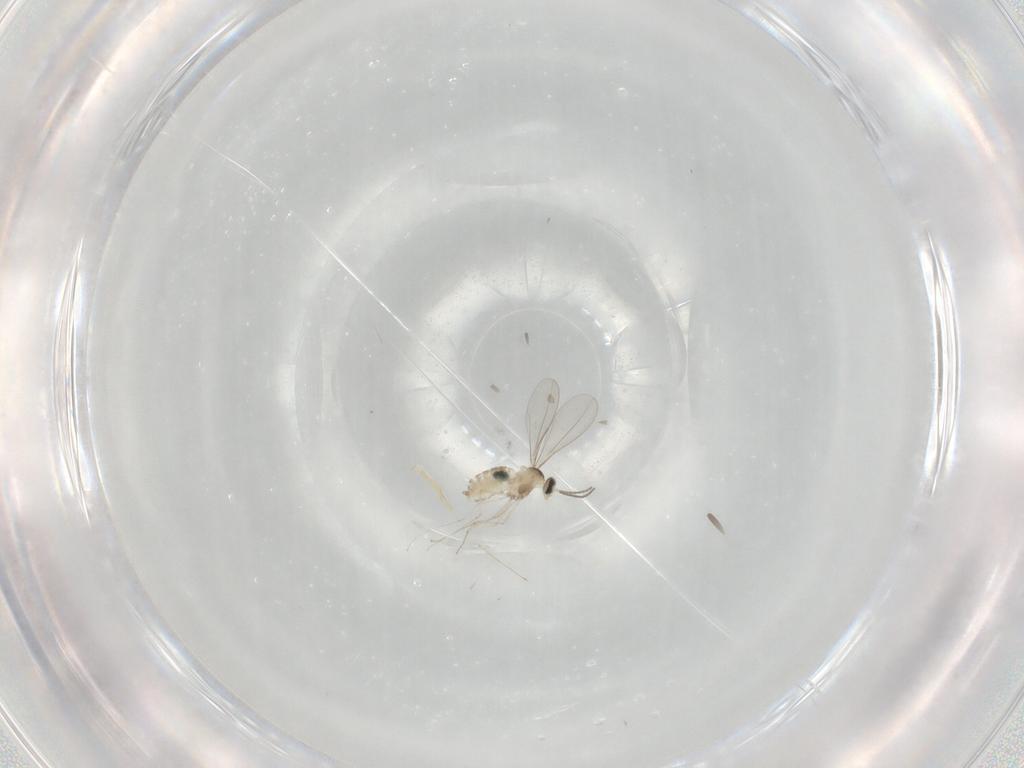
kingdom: Animalia
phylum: Arthropoda
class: Insecta
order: Diptera
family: Cecidomyiidae
